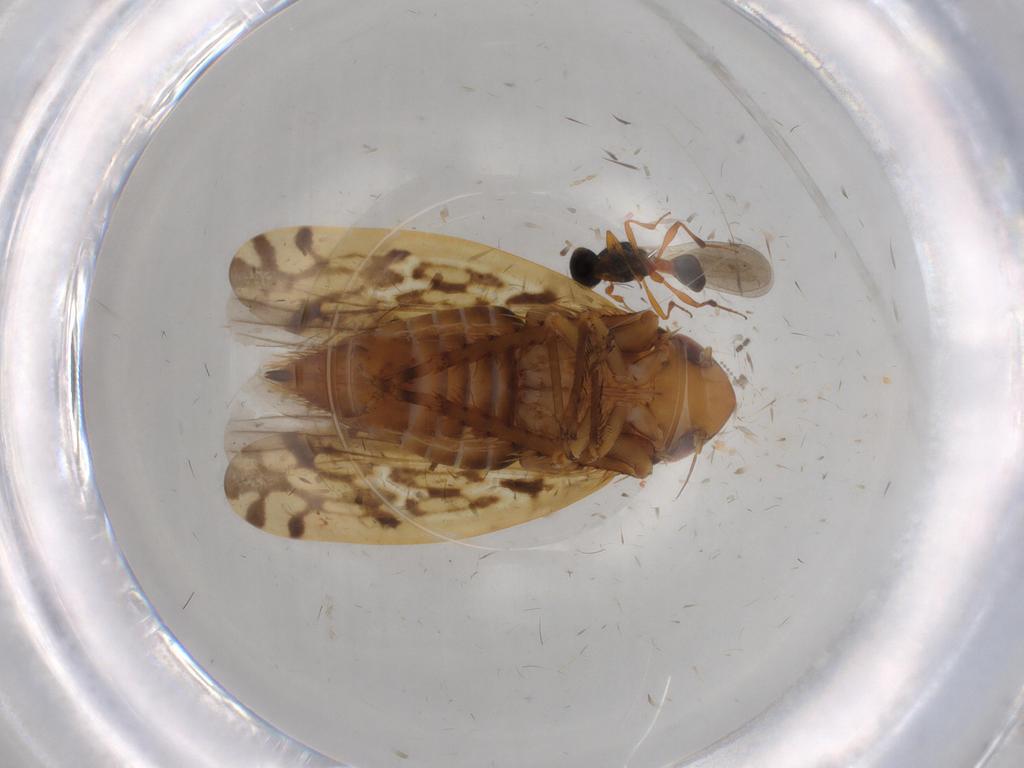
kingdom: Animalia
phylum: Arthropoda
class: Insecta
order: Hemiptera
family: Cicadellidae
